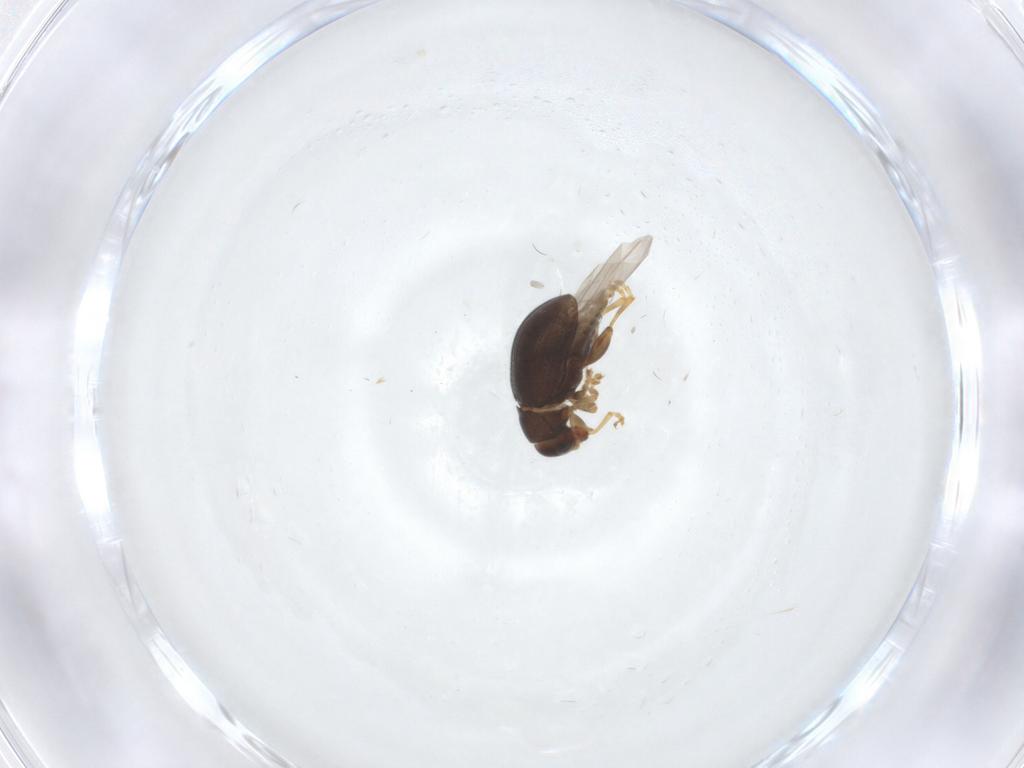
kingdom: Animalia
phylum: Arthropoda
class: Insecta
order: Coleoptera
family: Chrysomelidae
